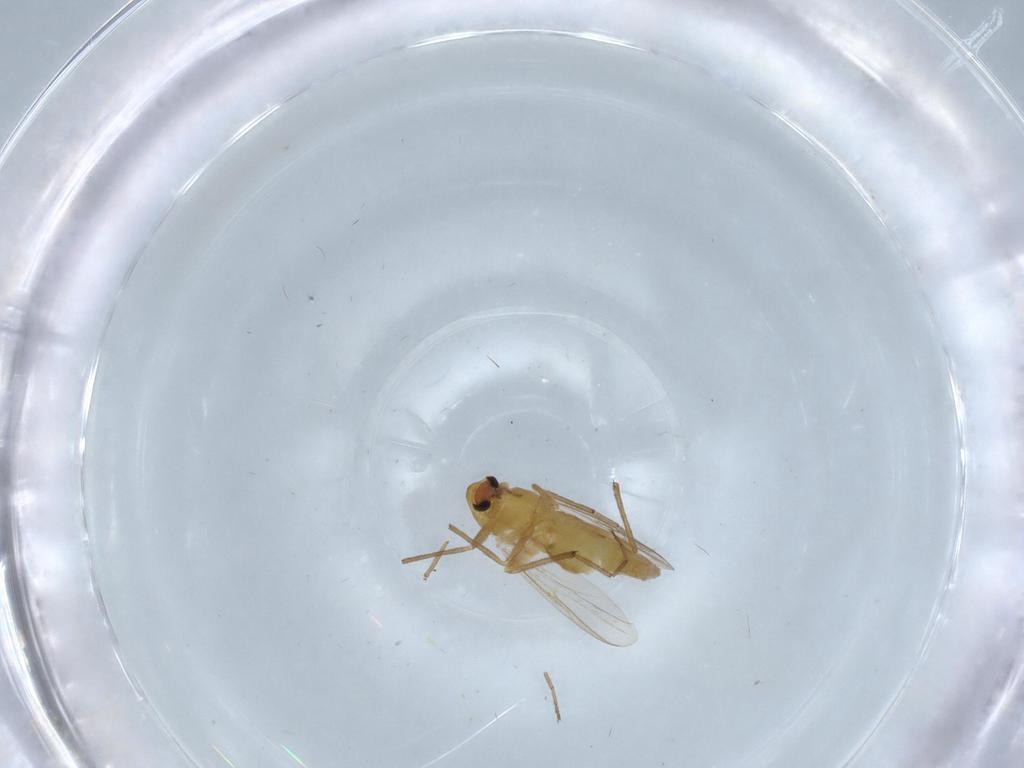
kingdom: Animalia
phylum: Arthropoda
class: Insecta
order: Diptera
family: Chironomidae
